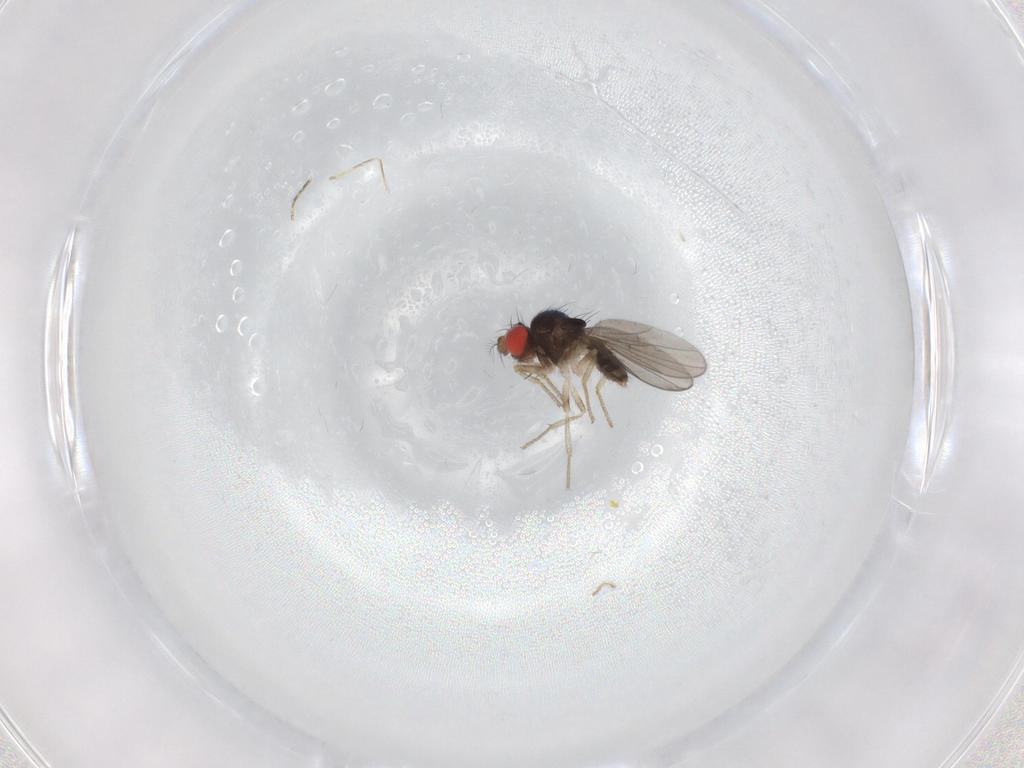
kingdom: Animalia
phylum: Arthropoda
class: Insecta
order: Diptera
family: Drosophilidae
